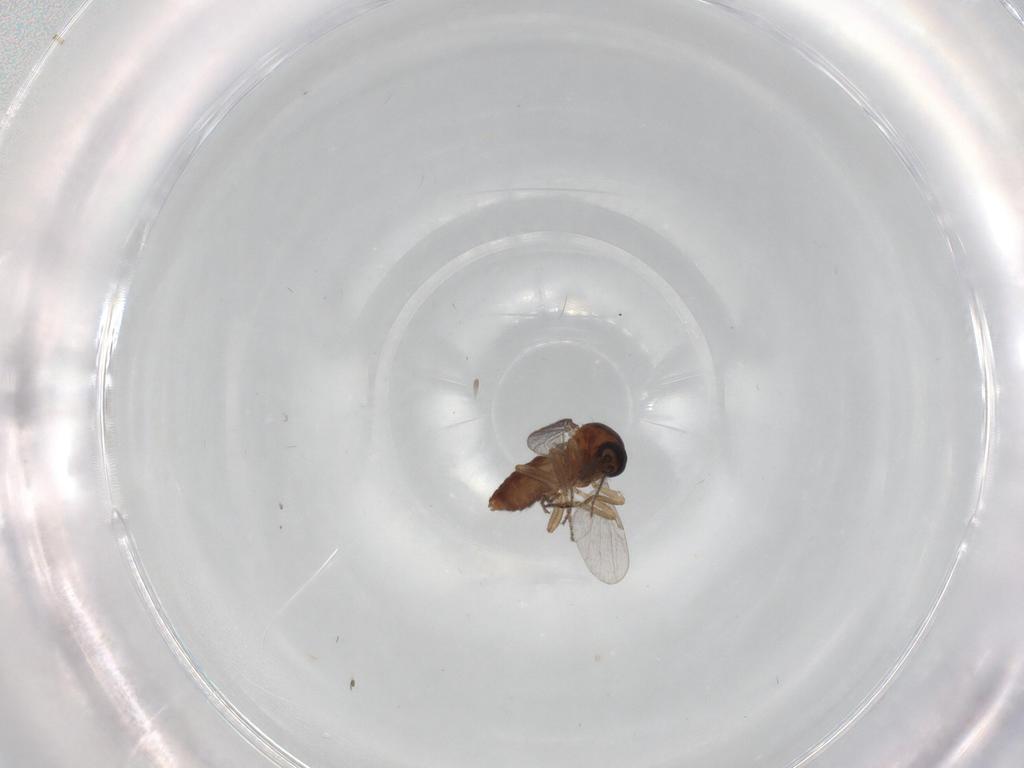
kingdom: Animalia
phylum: Arthropoda
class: Insecta
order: Diptera
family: Ceratopogonidae
